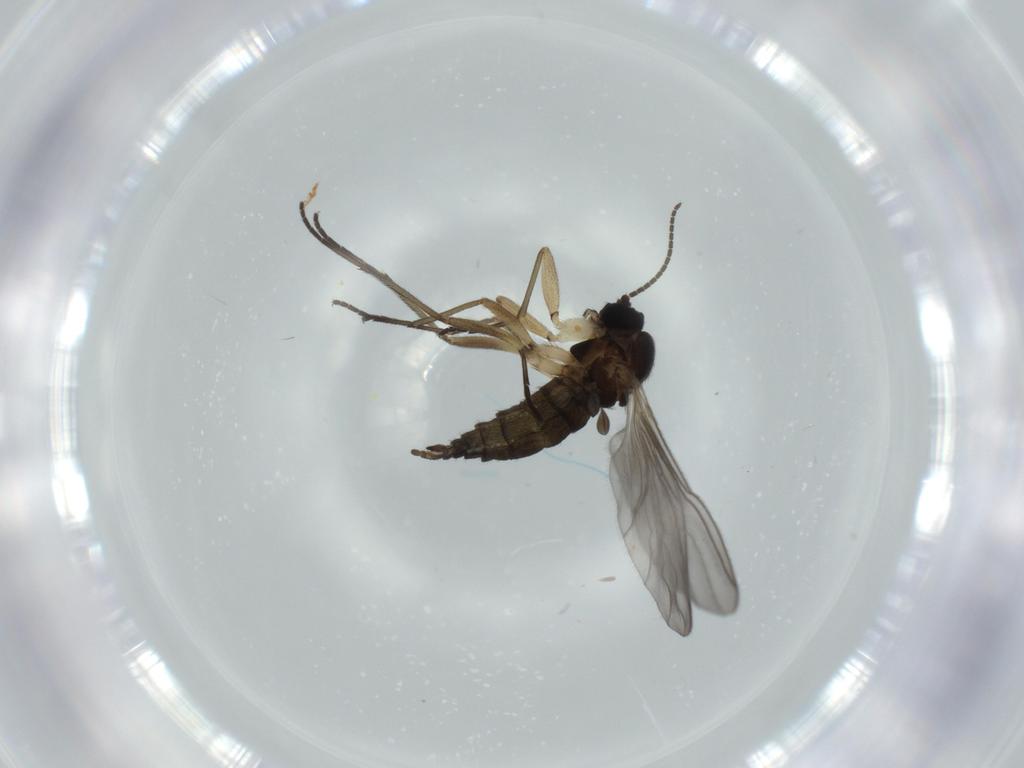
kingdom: Animalia
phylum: Arthropoda
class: Insecta
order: Diptera
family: Sciaridae
